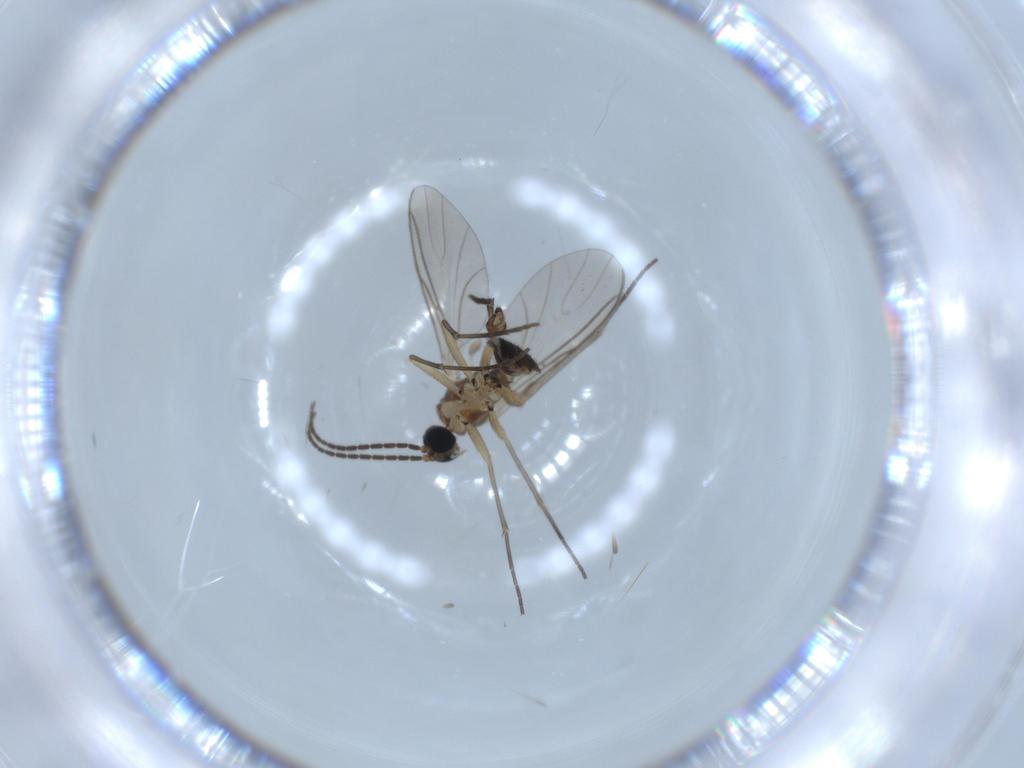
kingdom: Animalia
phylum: Arthropoda
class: Insecta
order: Diptera
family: Sciaridae
